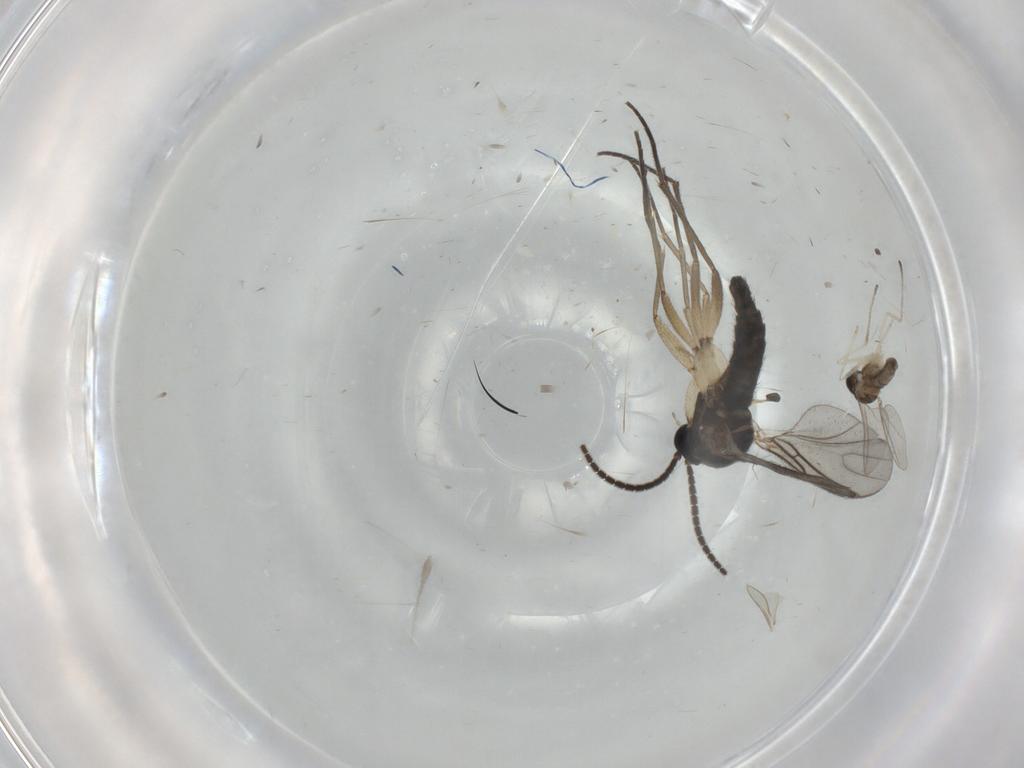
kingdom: Animalia
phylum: Arthropoda
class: Insecta
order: Diptera
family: Sciaridae
